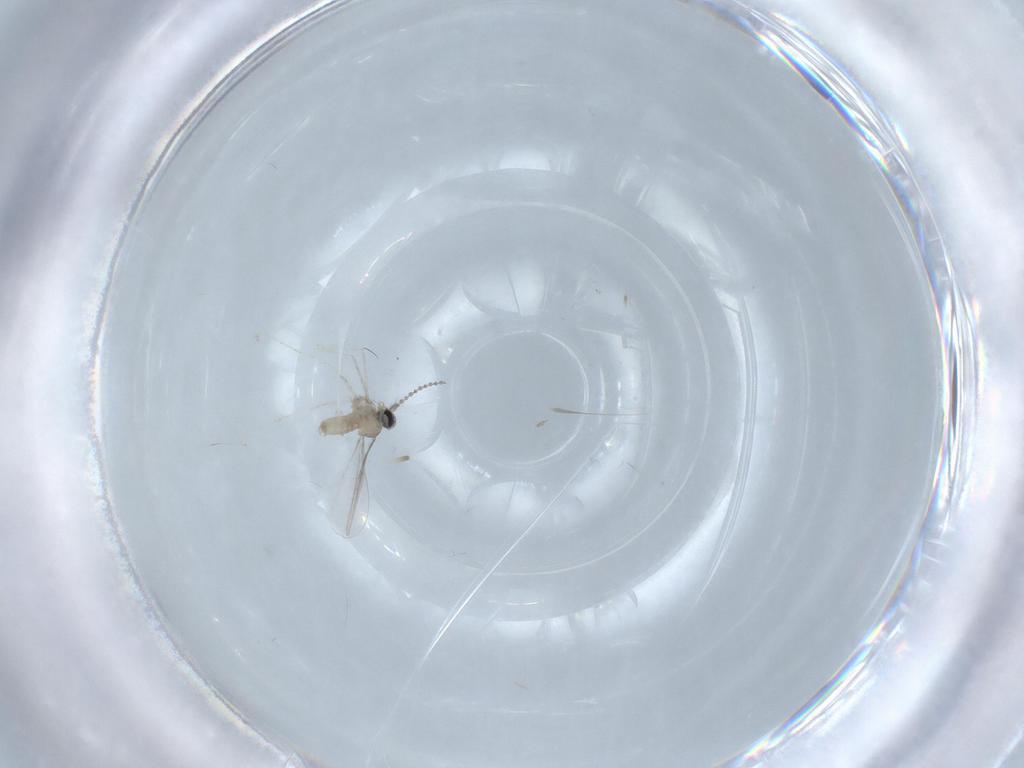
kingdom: Animalia
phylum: Arthropoda
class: Insecta
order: Diptera
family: Cecidomyiidae
